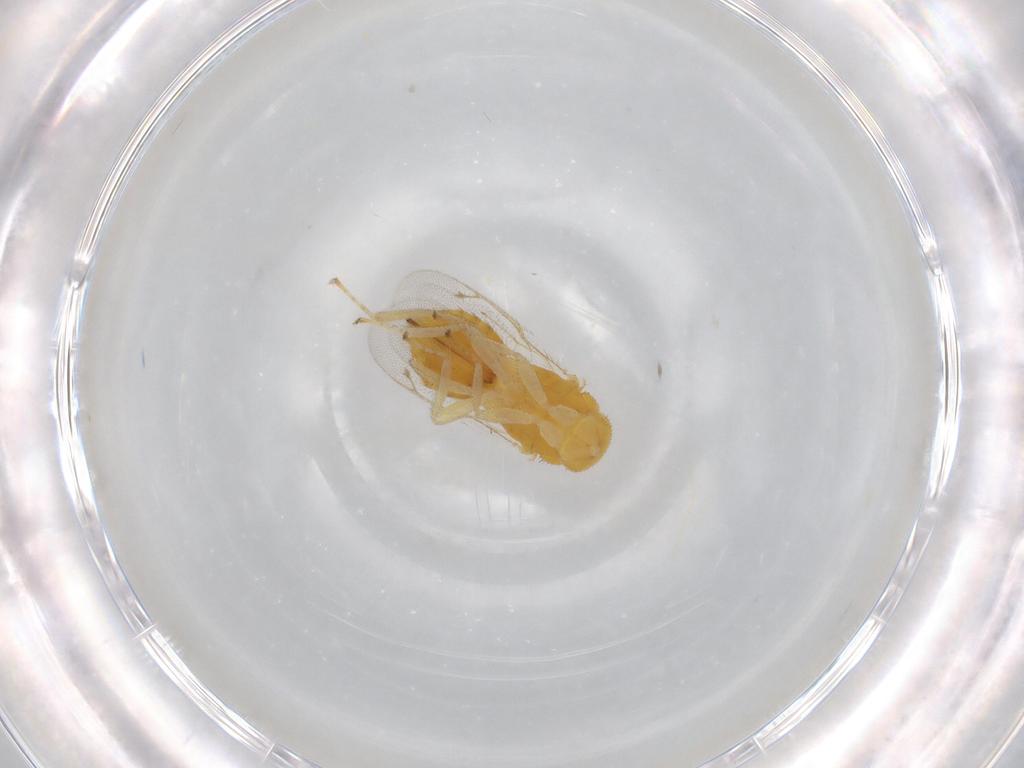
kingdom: Animalia
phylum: Arthropoda
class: Insecta
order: Hymenoptera
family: Eulophidae
